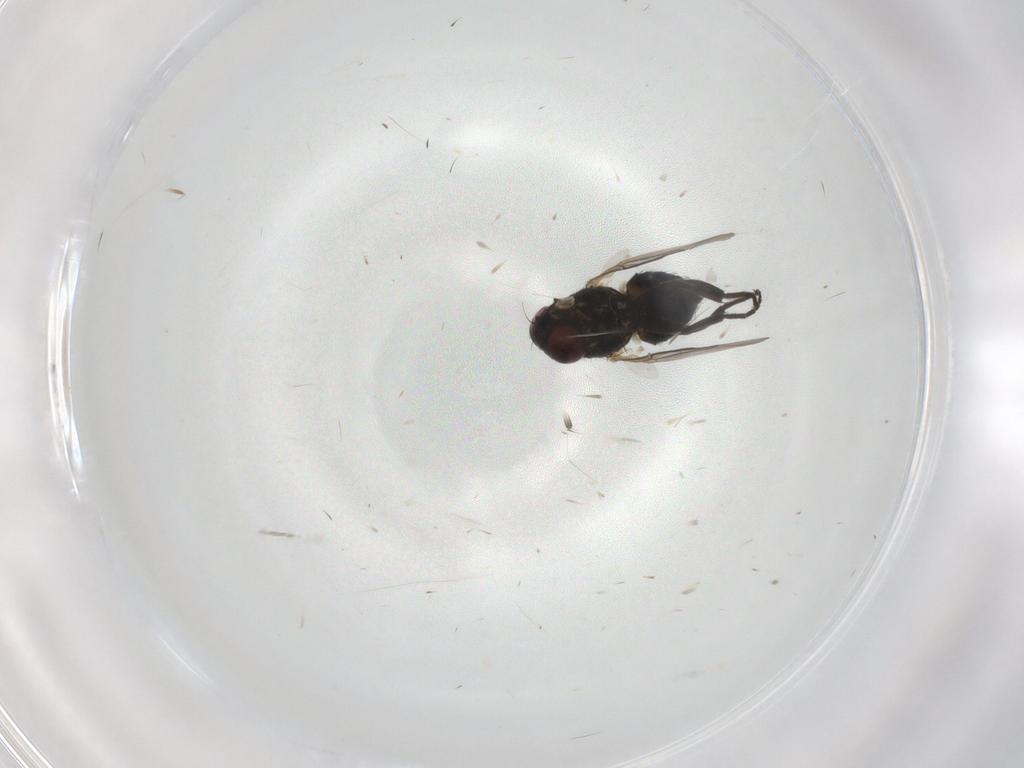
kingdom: Animalia
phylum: Arthropoda
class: Insecta
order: Diptera
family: Agromyzidae
